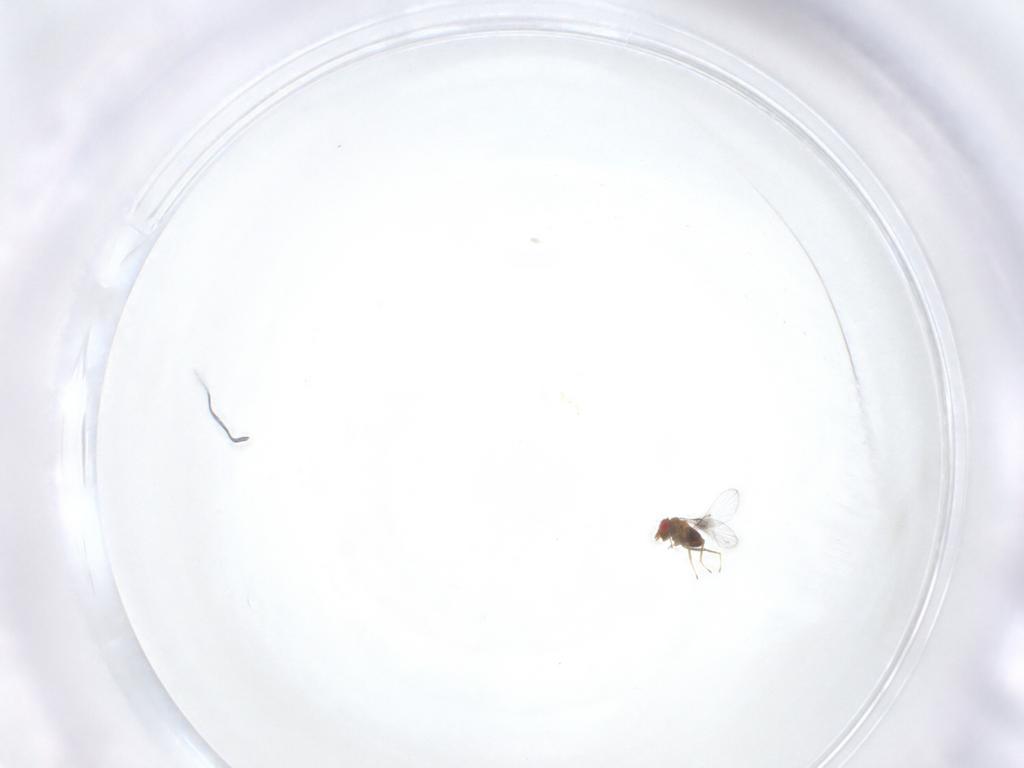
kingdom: Animalia
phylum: Arthropoda
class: Insecta
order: Hymenoptera
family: Trichogrammatidae
